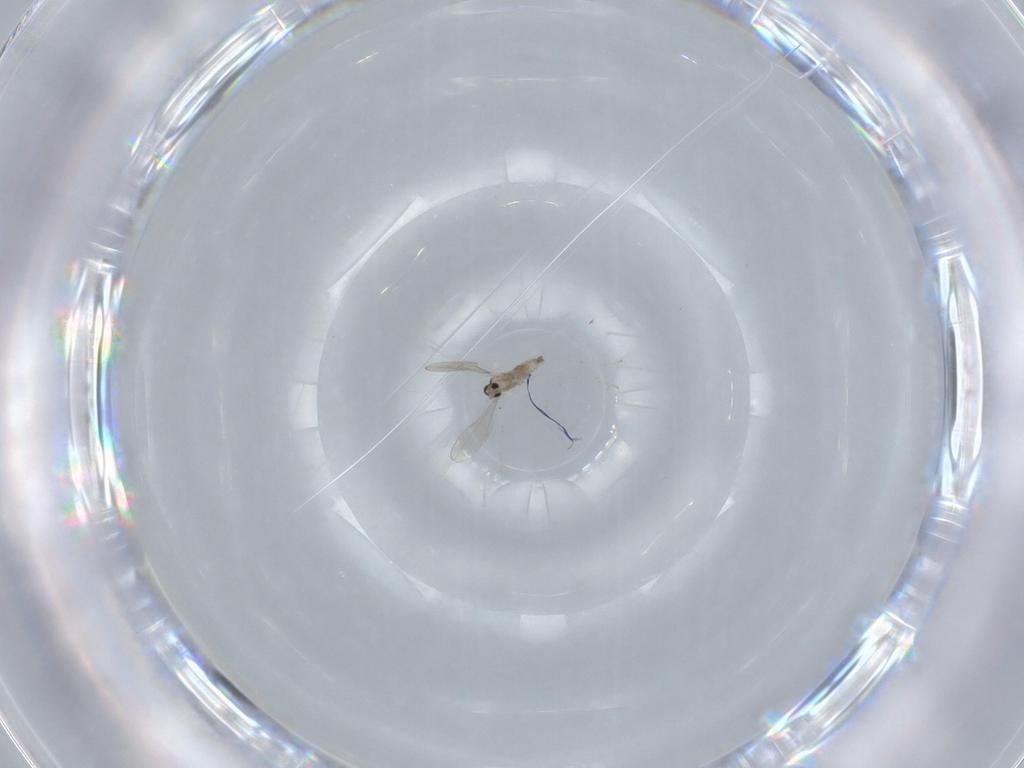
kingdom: Animalia
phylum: Arthropoda
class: Insecta
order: Diptera
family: Cecidomyiidae
